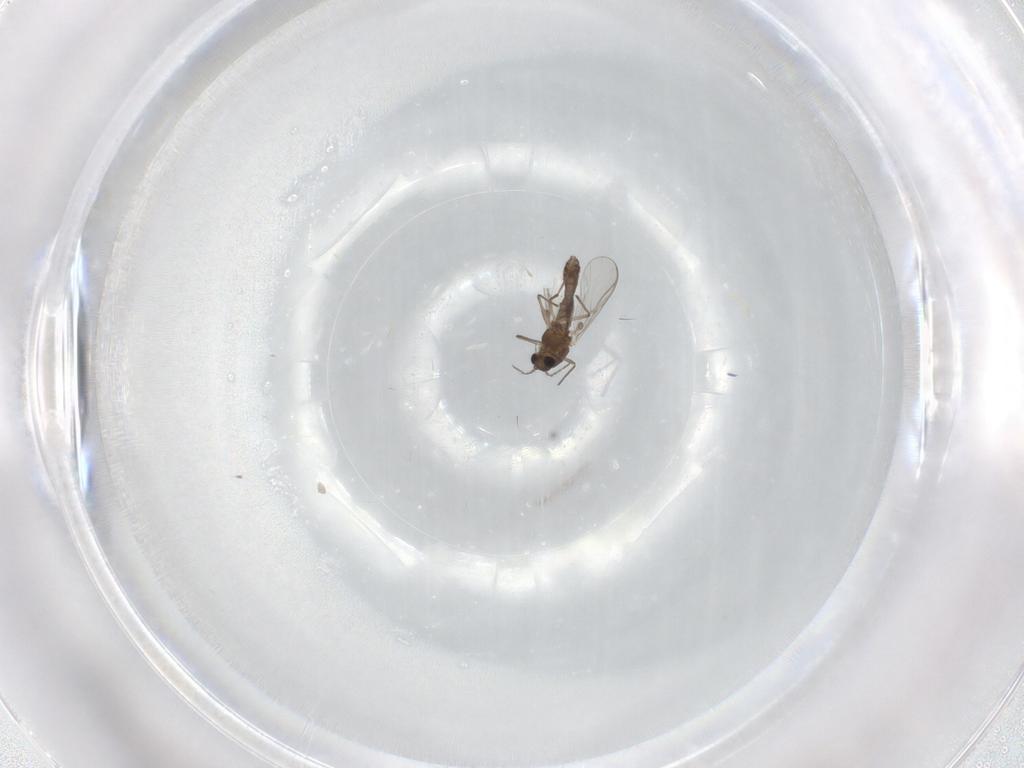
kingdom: Animalia
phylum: Arthropoda
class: Insecta
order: Diptera
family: Chironomidae
